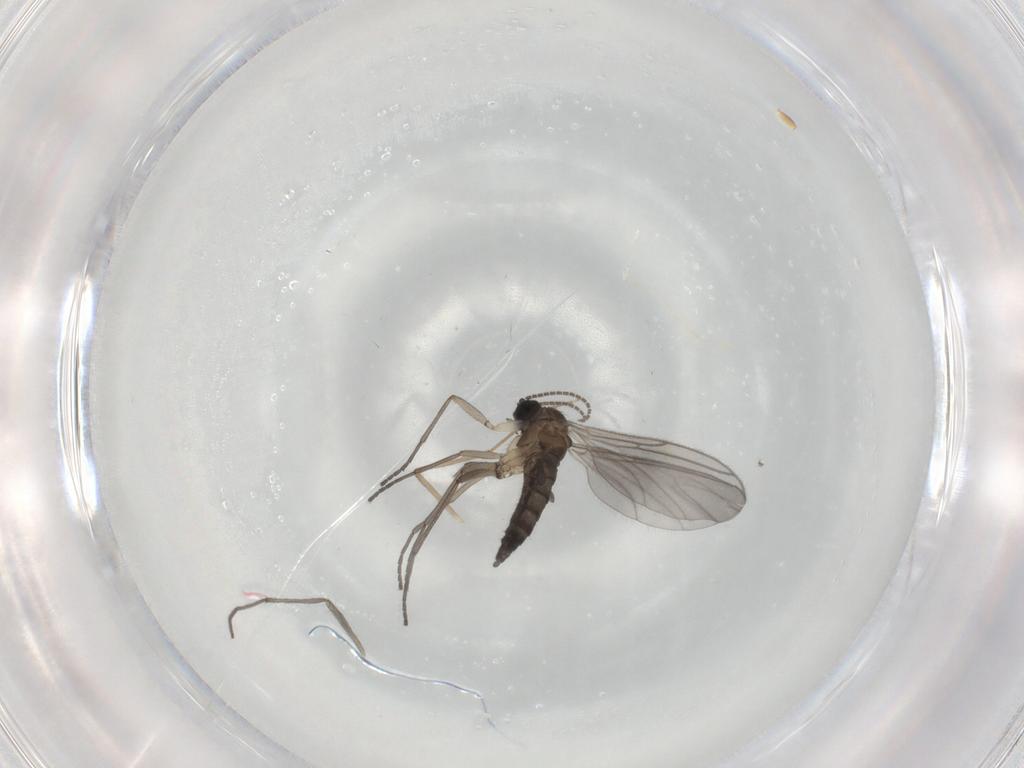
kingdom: Animalia
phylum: Arthropoda
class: Insecta
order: Diptera
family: Sciaridae
